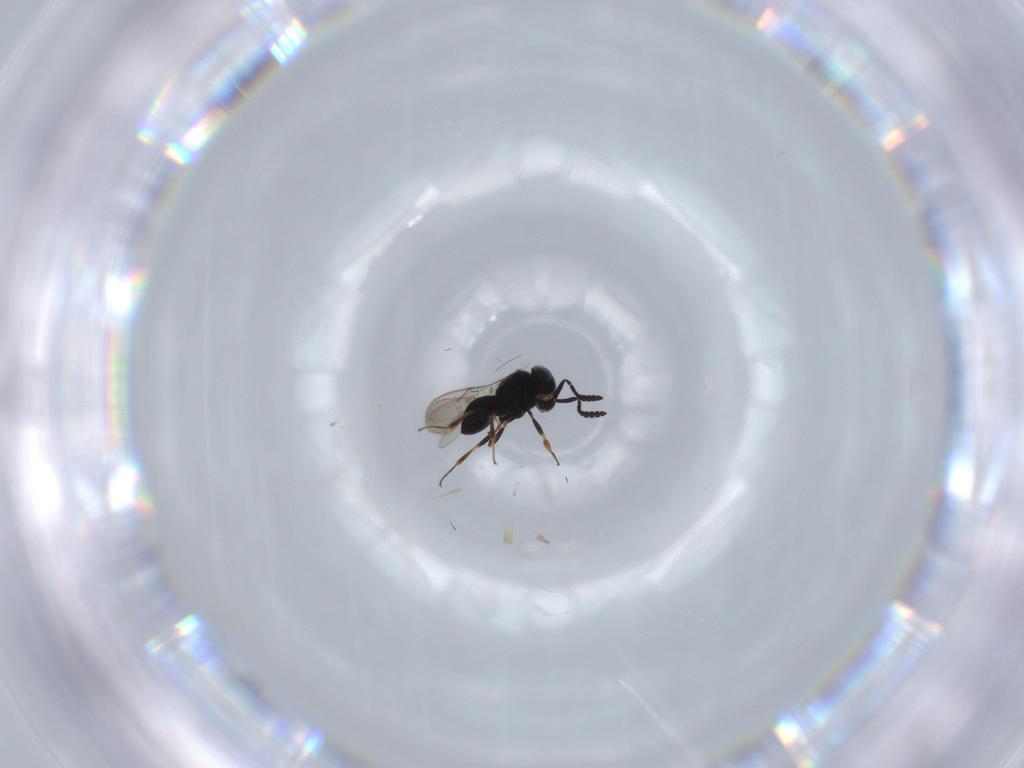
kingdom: Animalia
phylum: Arthropoda
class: Insecta
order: Hymenoptera
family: Scelionidae
